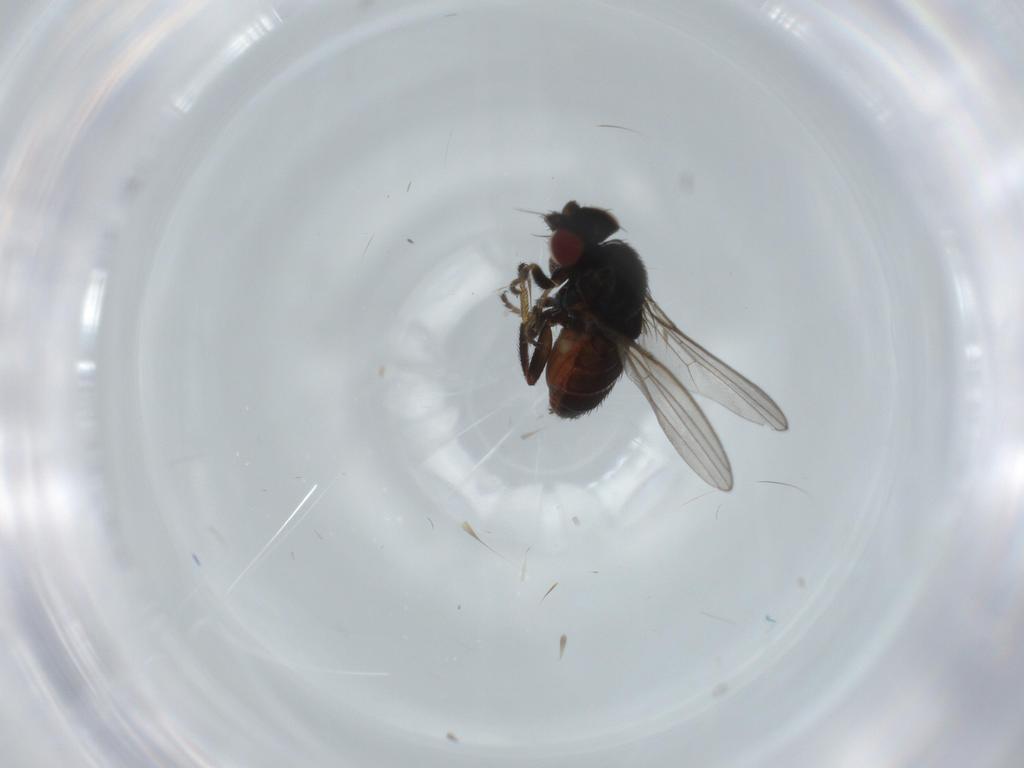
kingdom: Animalia
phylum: Arthropoda
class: Insecta
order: Diptera
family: Milichiidae
